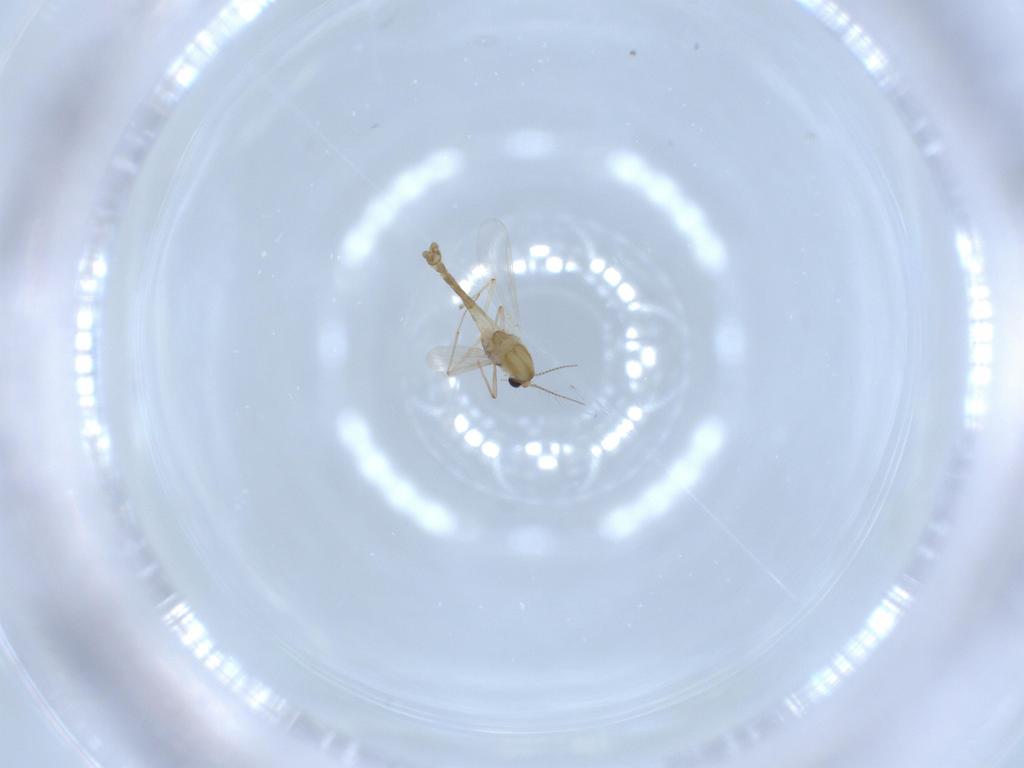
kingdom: Animalia
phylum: Arthropoda
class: Insecta
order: Diptera
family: Chironomidae
